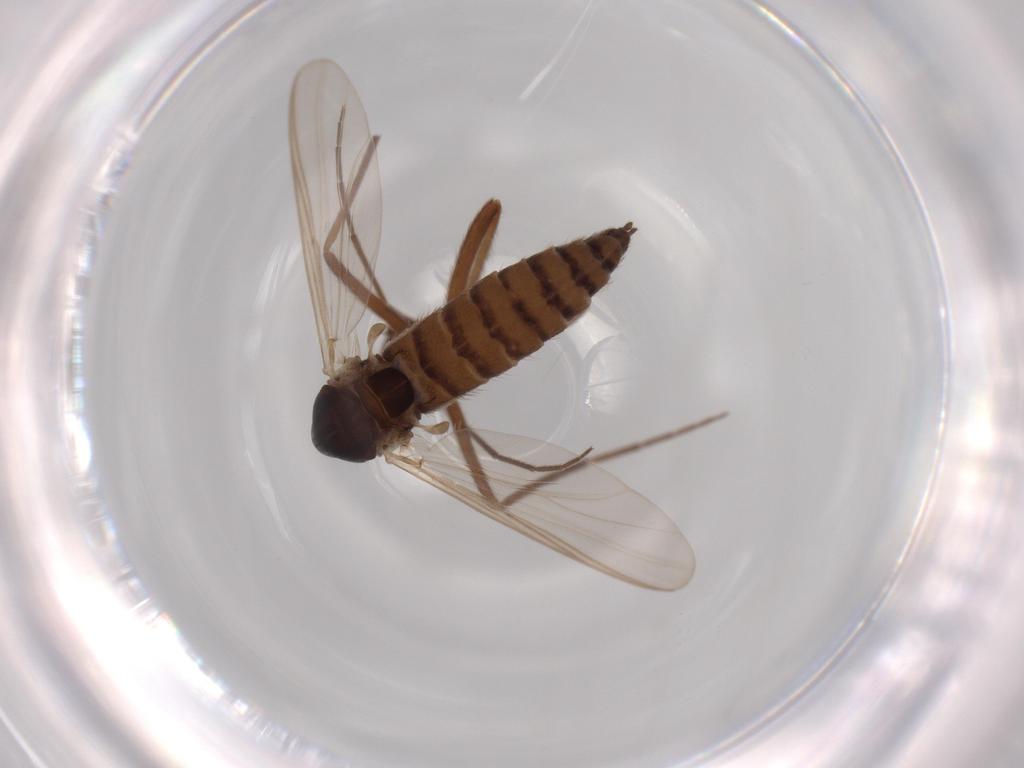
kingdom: Animalia
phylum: Arthropoda
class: Insecta
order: Diptera
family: Chironomidae
